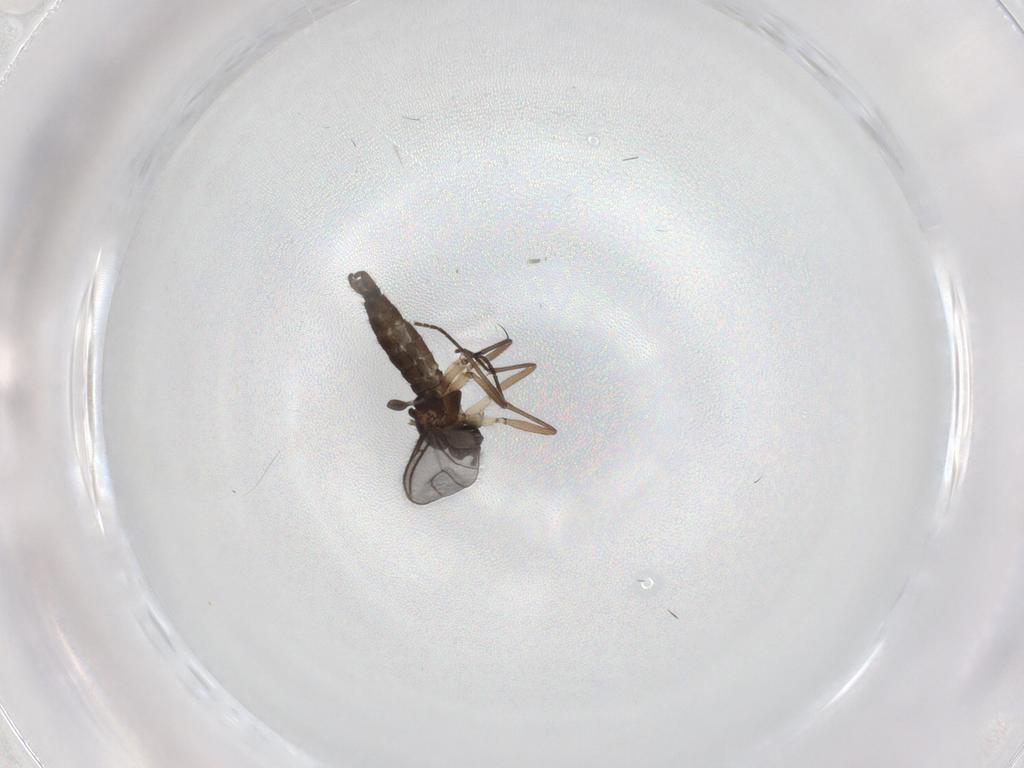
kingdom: Animalia
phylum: Arthropoda
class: Insecta
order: Diptera
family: Sciaridae
